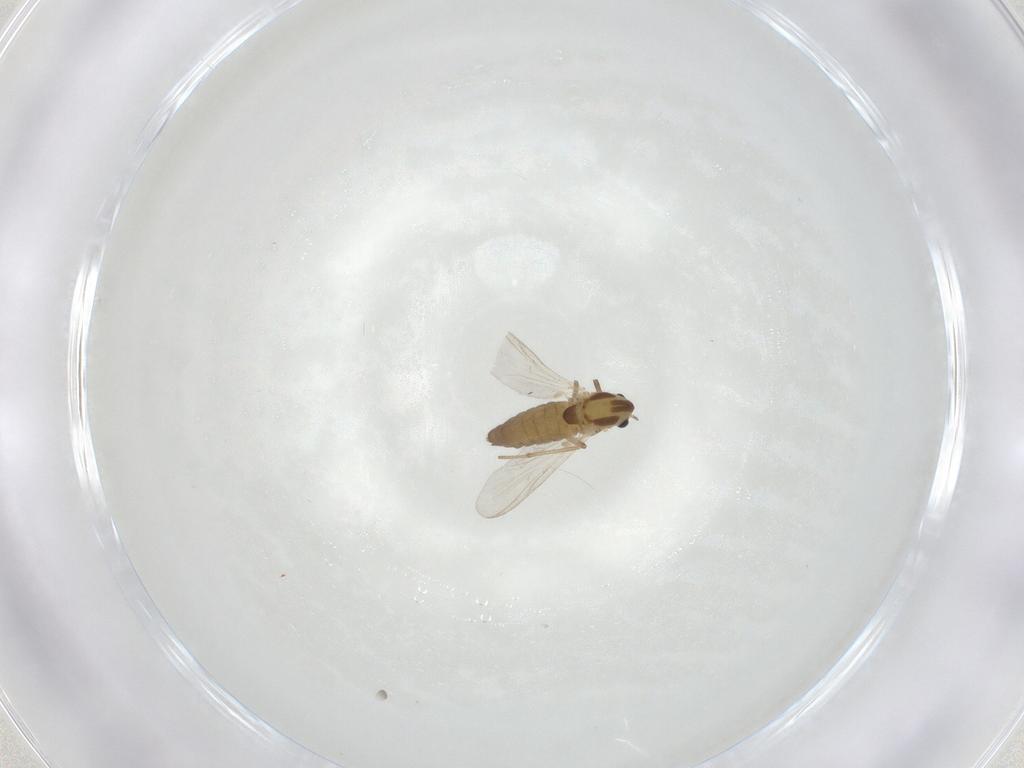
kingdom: Animalia
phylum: Arthropoda
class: Insecta
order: Diptera
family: Chironomidae
